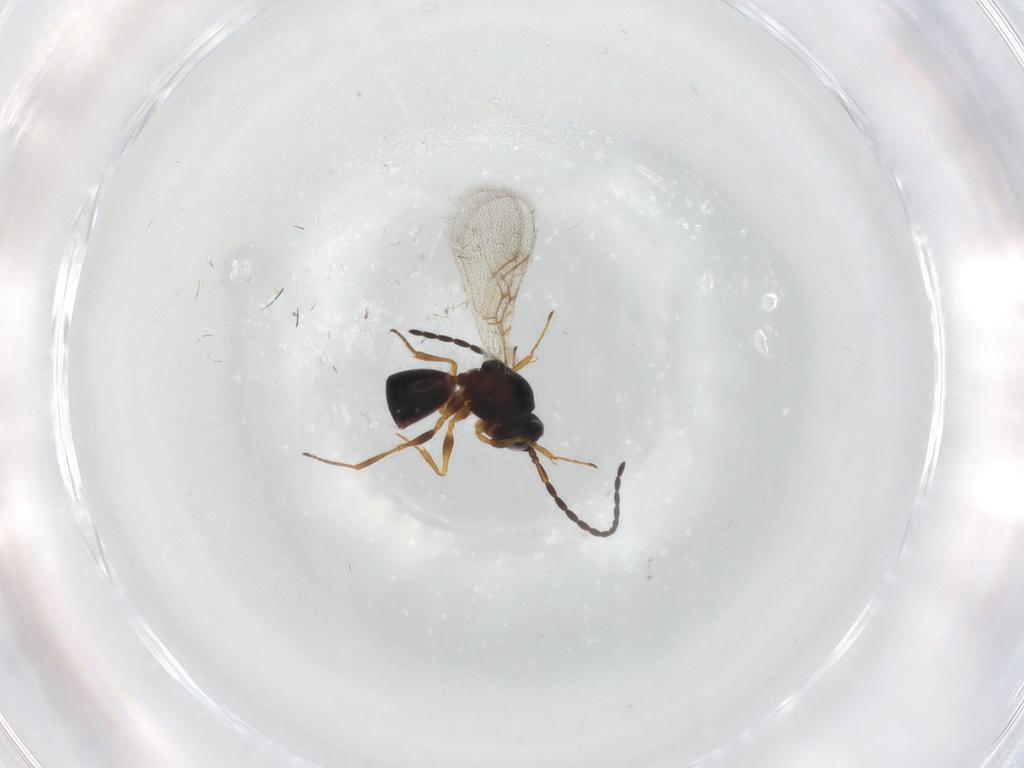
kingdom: Animalia
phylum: Arthropoda
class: Insecta
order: Hymenoptera
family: Figitidae
